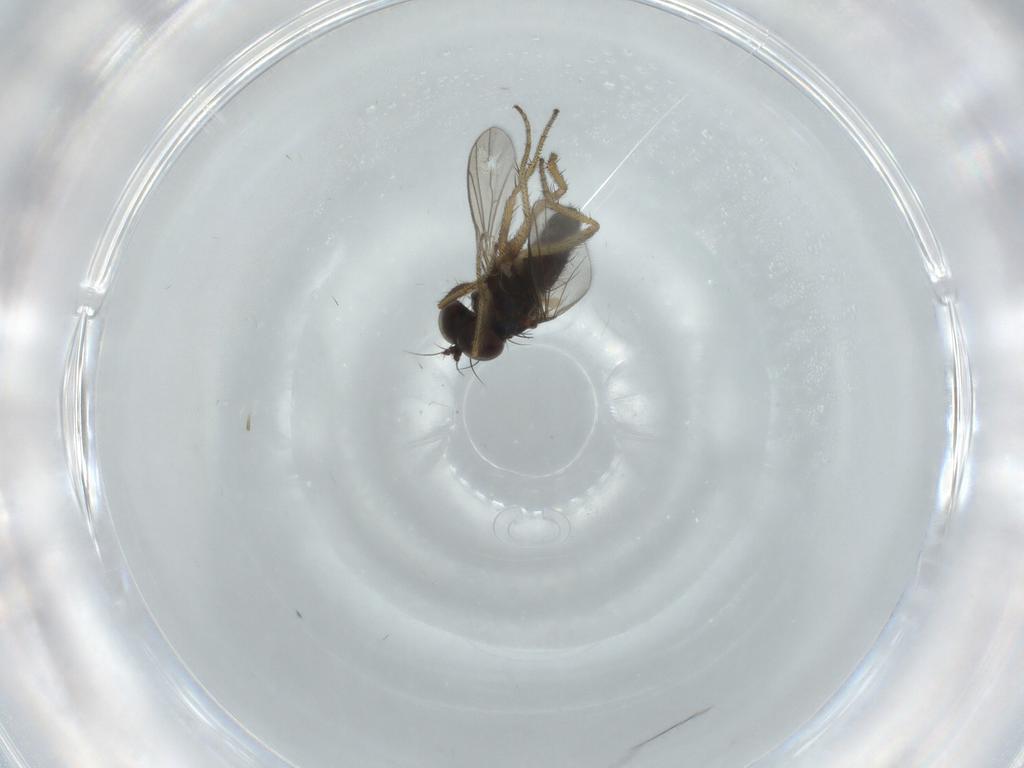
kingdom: Animalia
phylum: Arthropoda
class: Insecta
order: Diptera
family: Dolichopodidae
